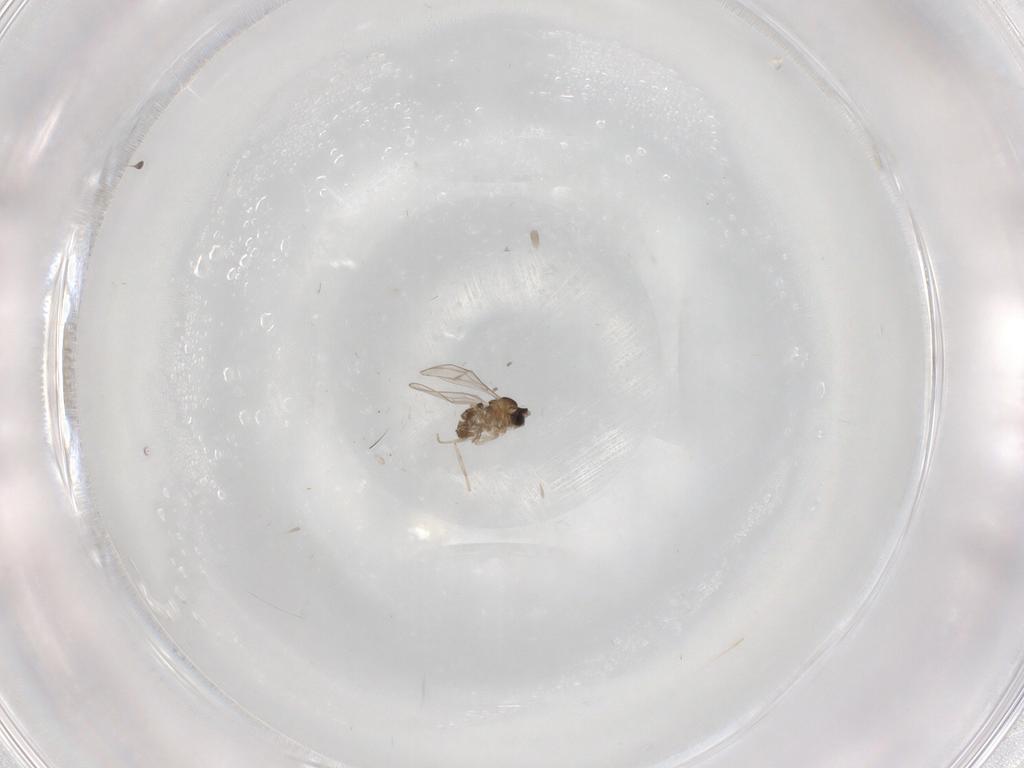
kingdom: Animalia
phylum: Arthropoda
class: Insecta
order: Diptera
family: Cecidomyiidae
